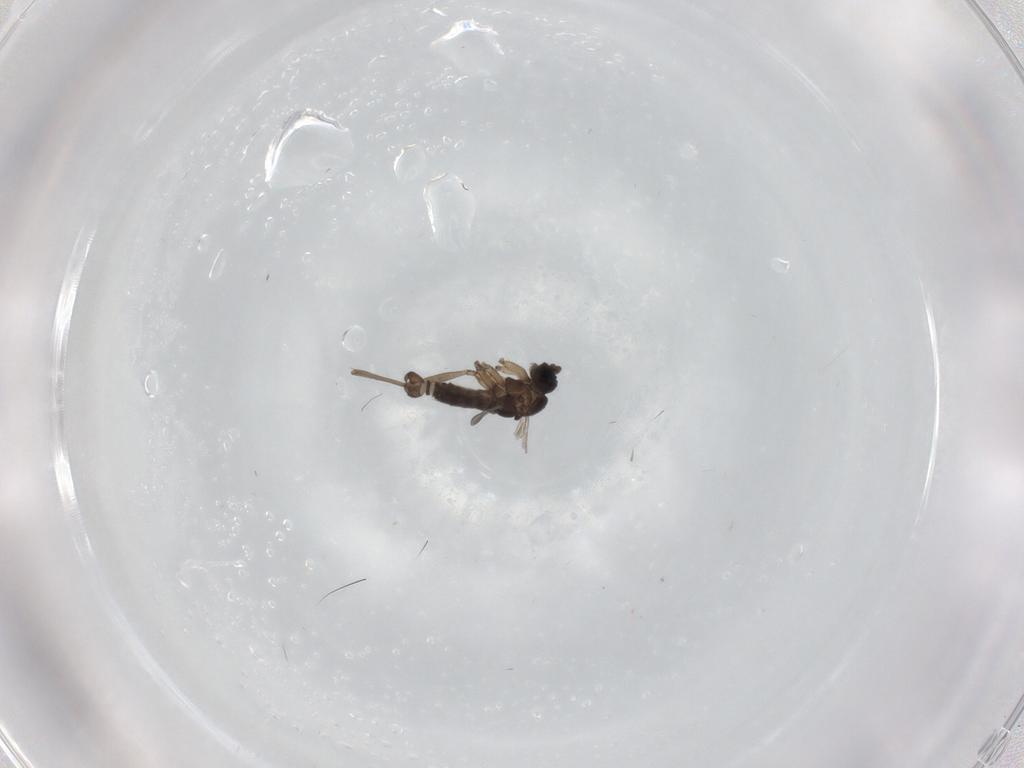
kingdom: Animalia
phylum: Arthropoda
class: Insecta
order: Diptera
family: Sciaridae
